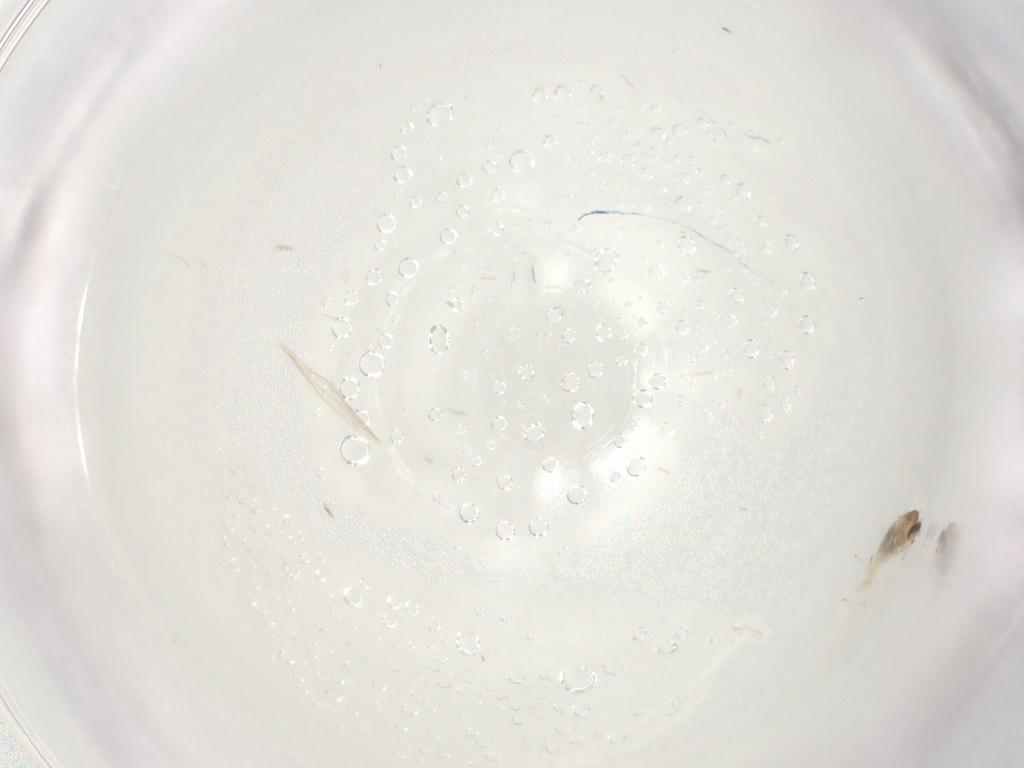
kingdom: Animalia
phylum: Arthropoda
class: Insecta
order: Diptera
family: Chironomidae
